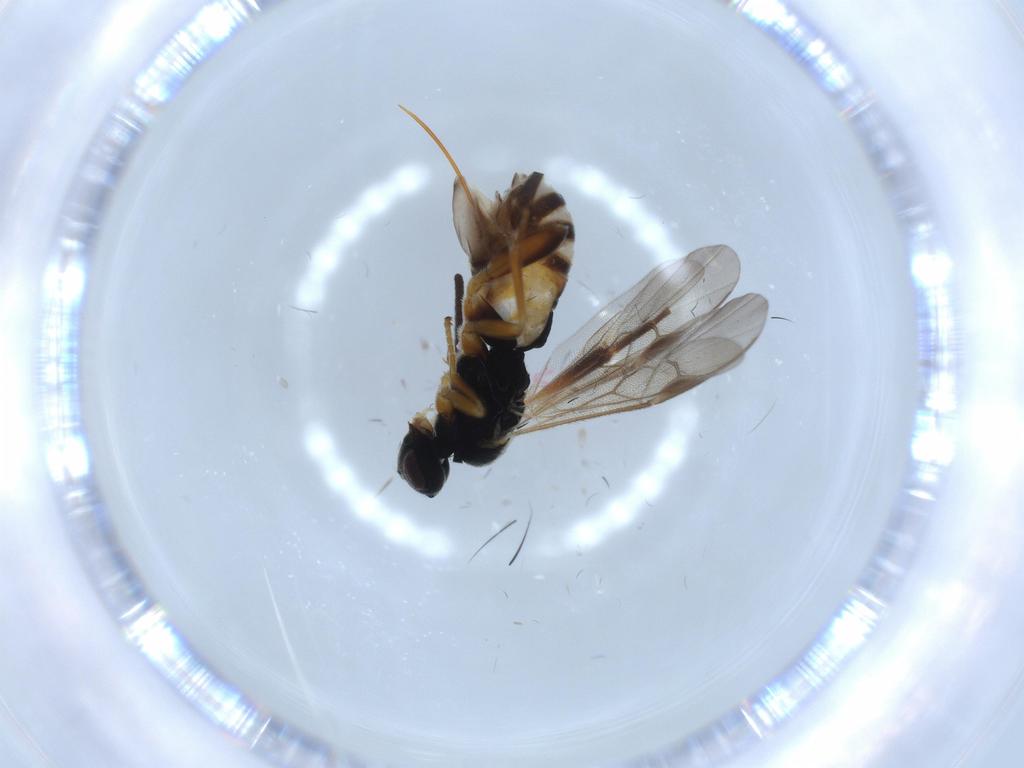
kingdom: Animalia
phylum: Arthropoda
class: Insecta
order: Hymenoptera
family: Braconidae
